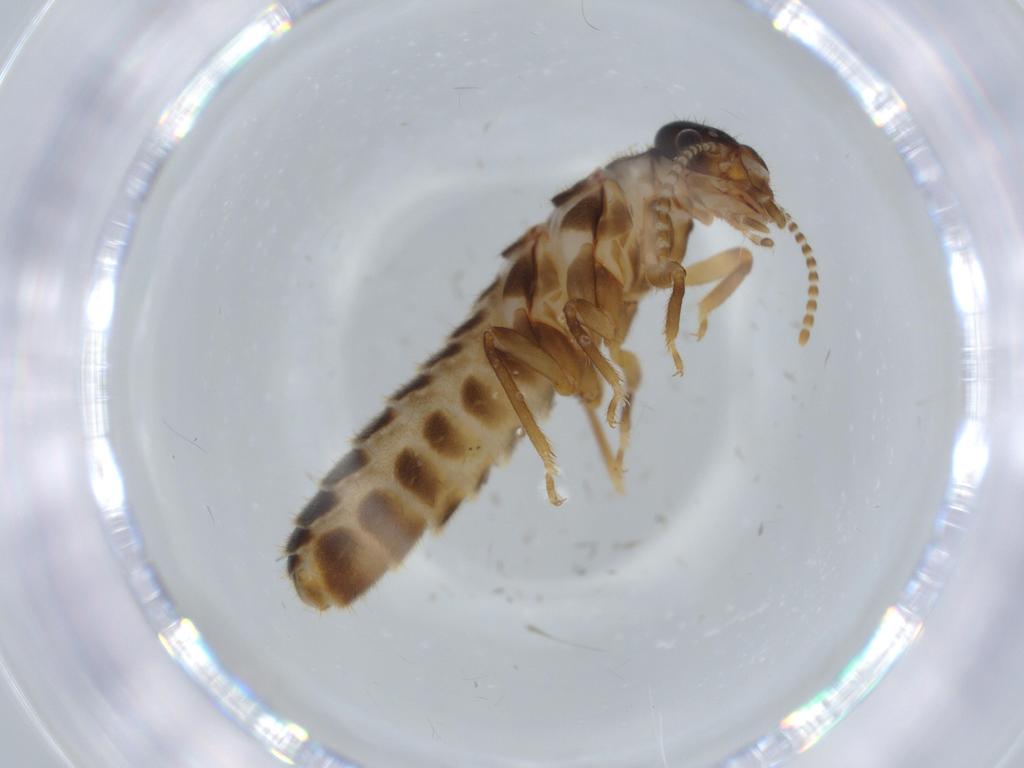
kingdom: Animalia
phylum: Arthropoda
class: Insecta
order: Blattodea
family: Termitidae
